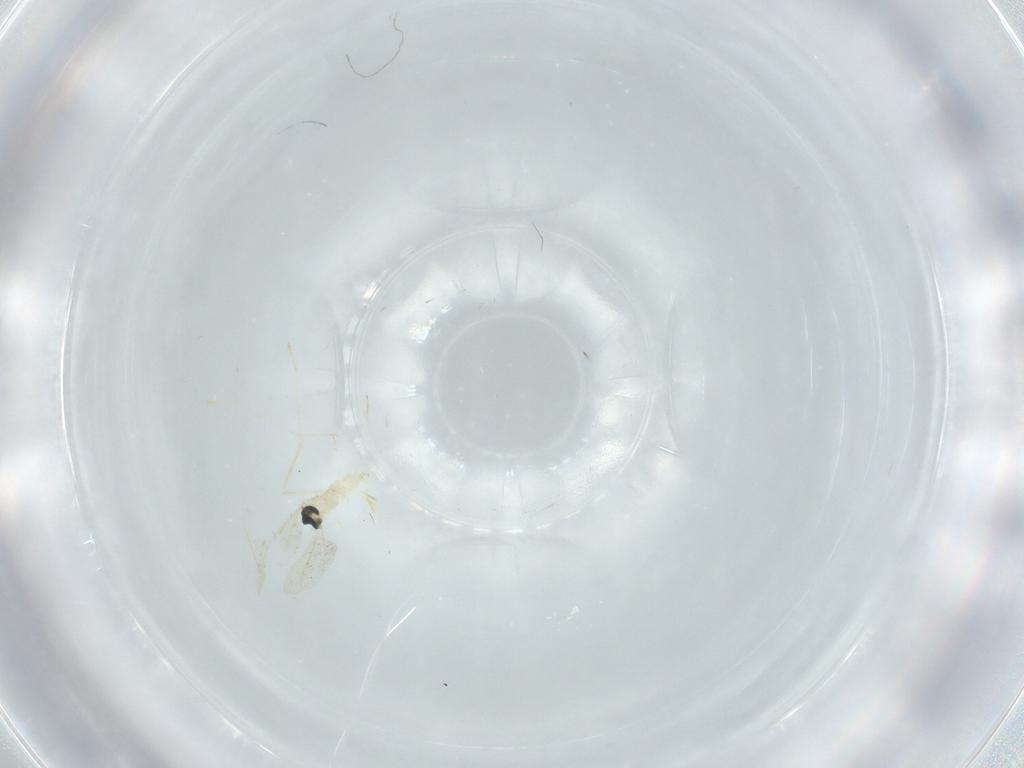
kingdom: Animalia
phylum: Arthropoda
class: Insecta
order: Diptera
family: Cecidomyiidae
